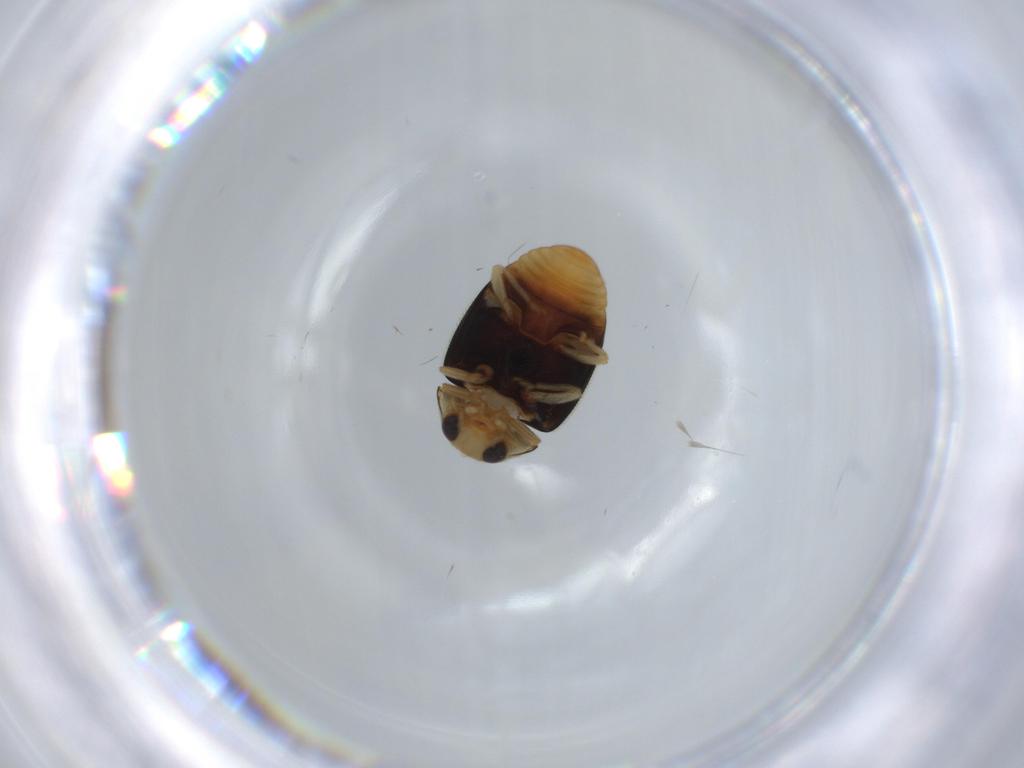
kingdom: Animalia
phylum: Arthropoda
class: Insecta
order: Coleoptera
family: Coccinellidae
